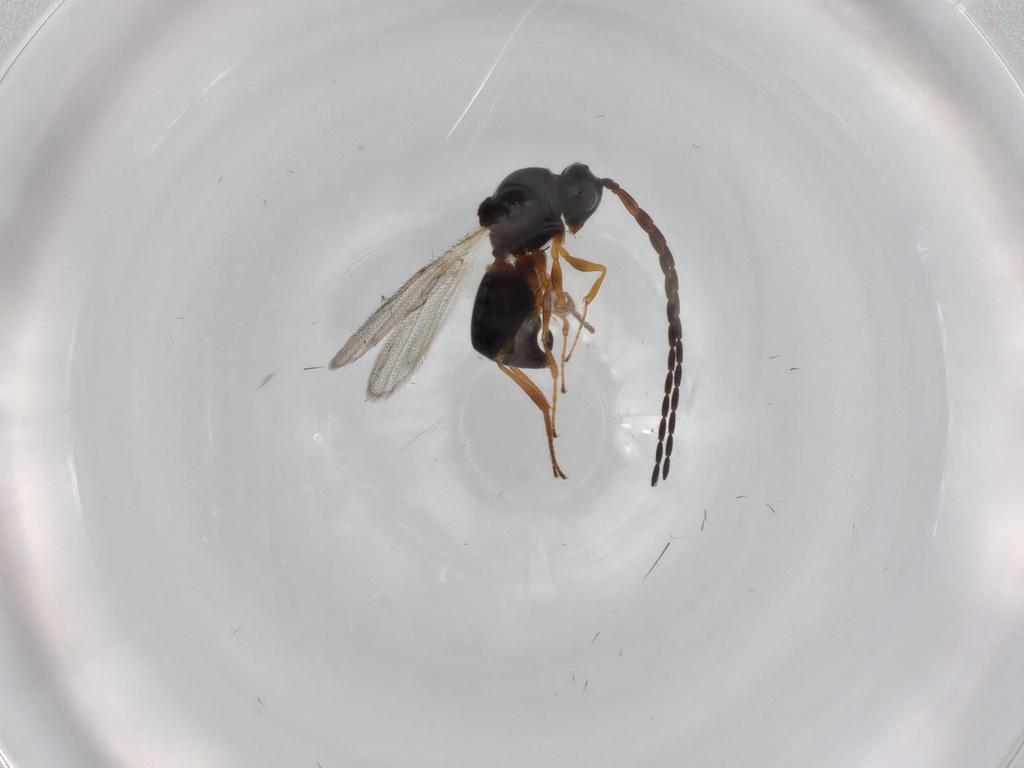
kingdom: Animalia
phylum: Arthropoda
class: Insecta
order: Hymenoptera
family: Figitidae
